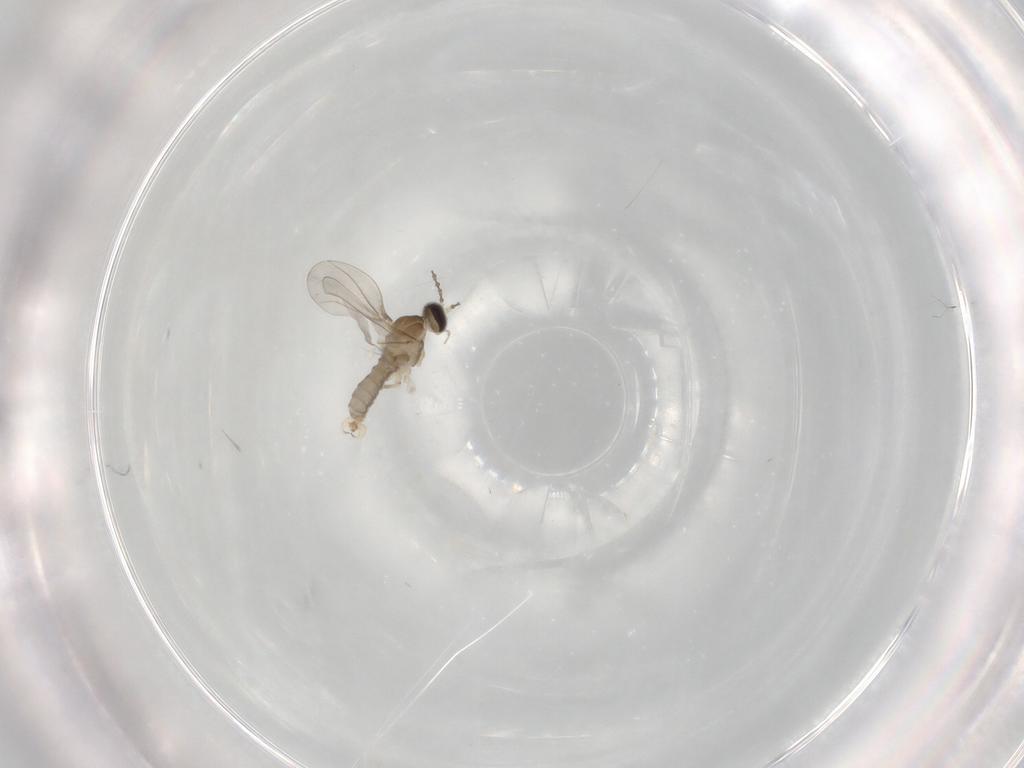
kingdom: Animalia
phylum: Arthropoda
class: Insecta
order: Diptera
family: Cecidomyiidae
